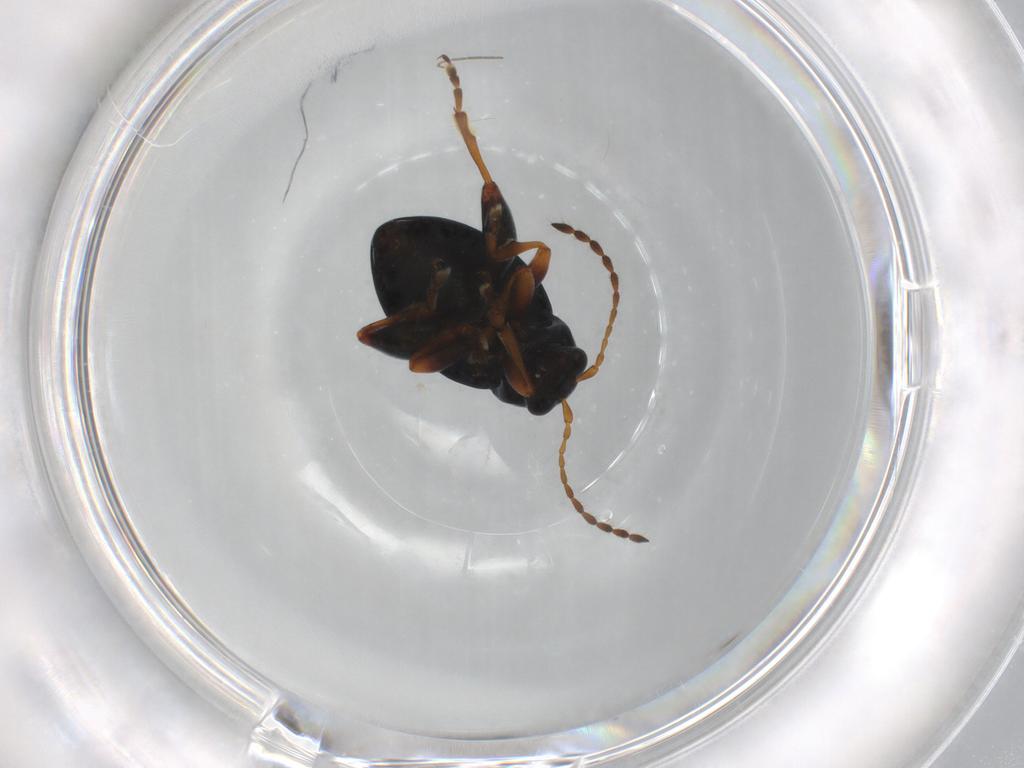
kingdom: Animalia
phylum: Arthropoda
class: Insecta
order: Coleoptera
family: Chrysomelidae
